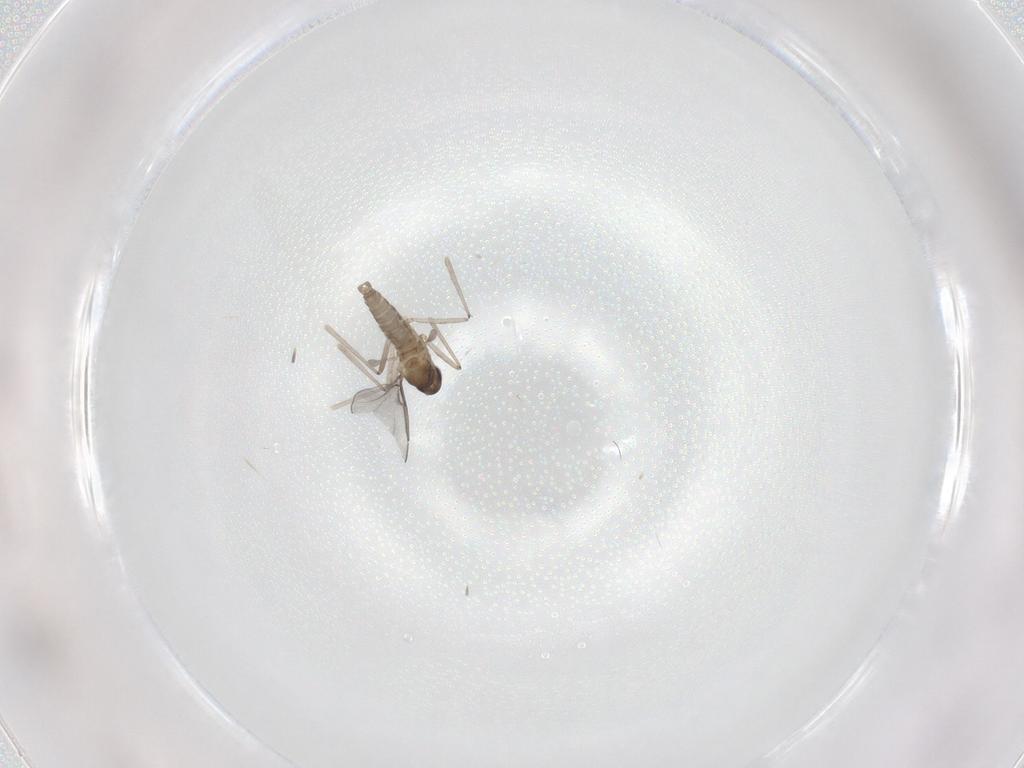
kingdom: Animalia
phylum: Arthropoda
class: Insecta
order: Diptera
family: Cecidomyiidae
